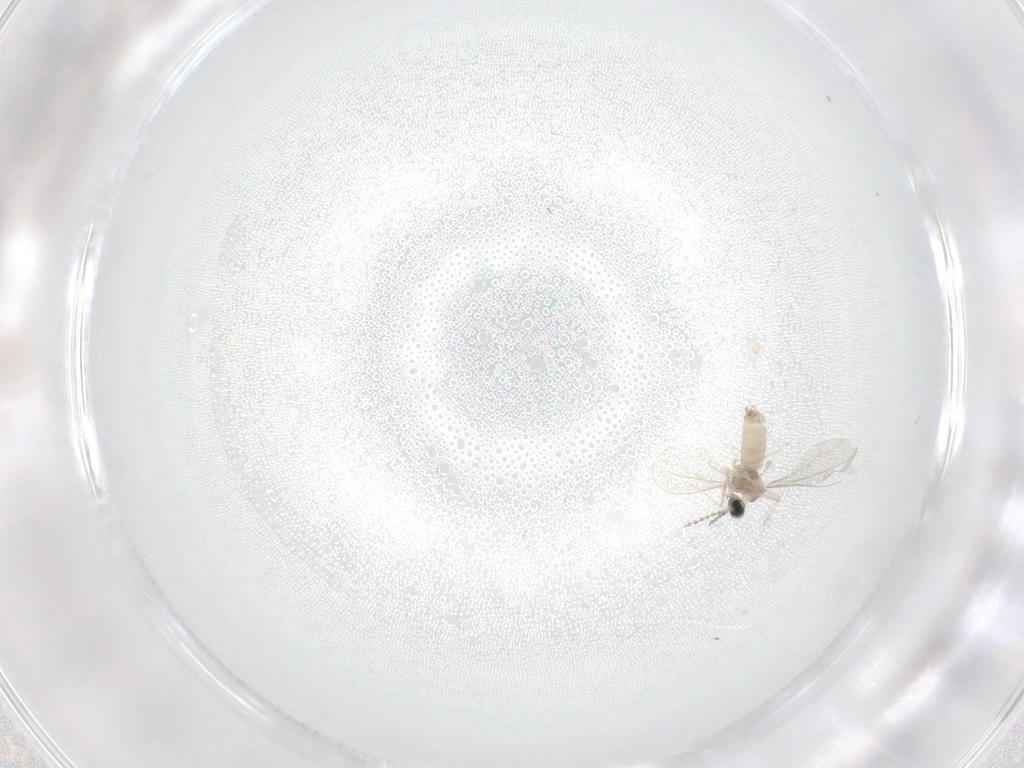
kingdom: Animalia
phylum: Arthropoda
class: Insecta
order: Diptera
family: Cecidomyiidae
